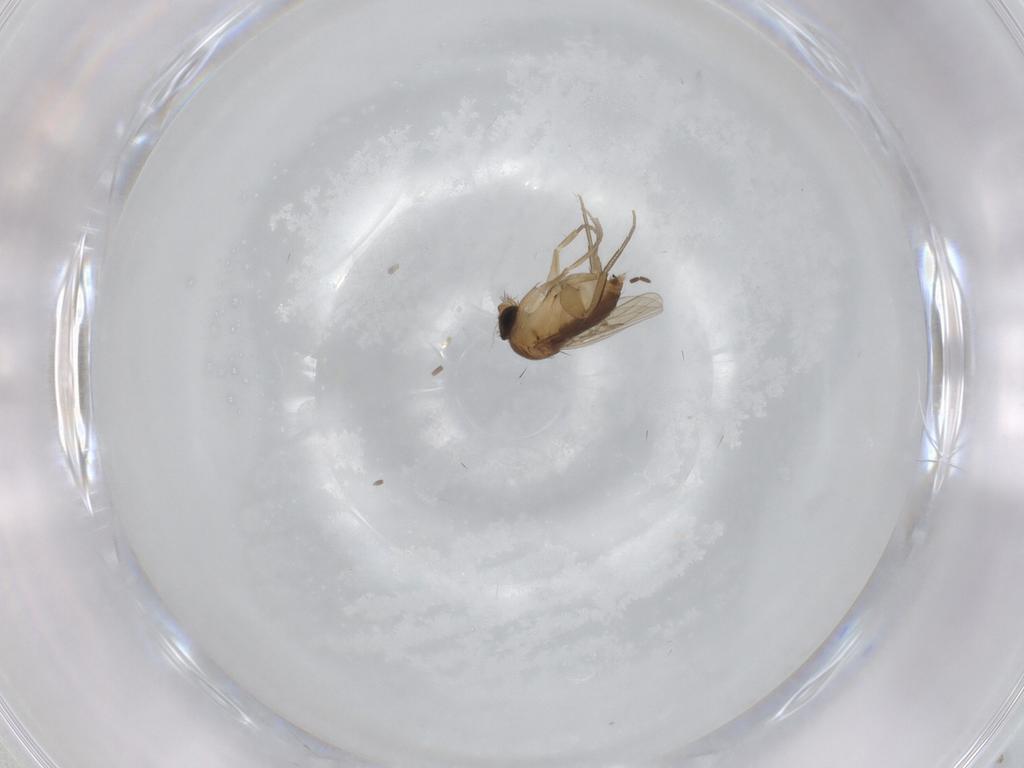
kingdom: Animalia
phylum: Arthropoda
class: Insecta
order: Diptera
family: Phoridae
